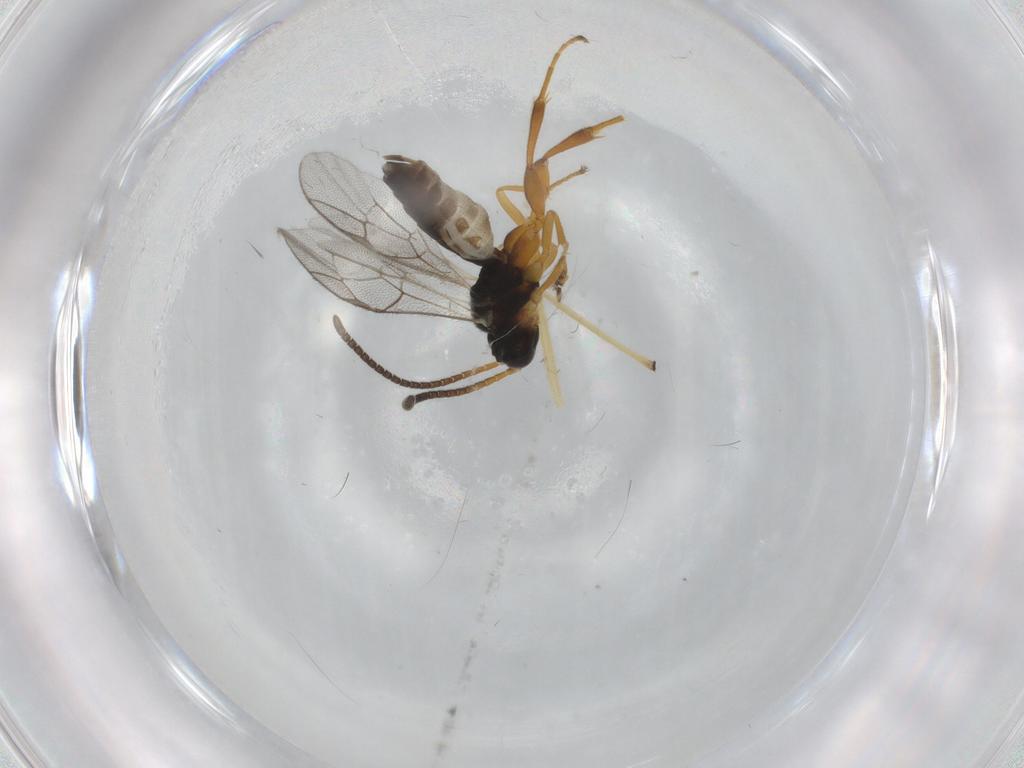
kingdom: Animalia
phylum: Arthropoda
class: Insecta
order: Hymenoptera
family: Ichneumonidae
